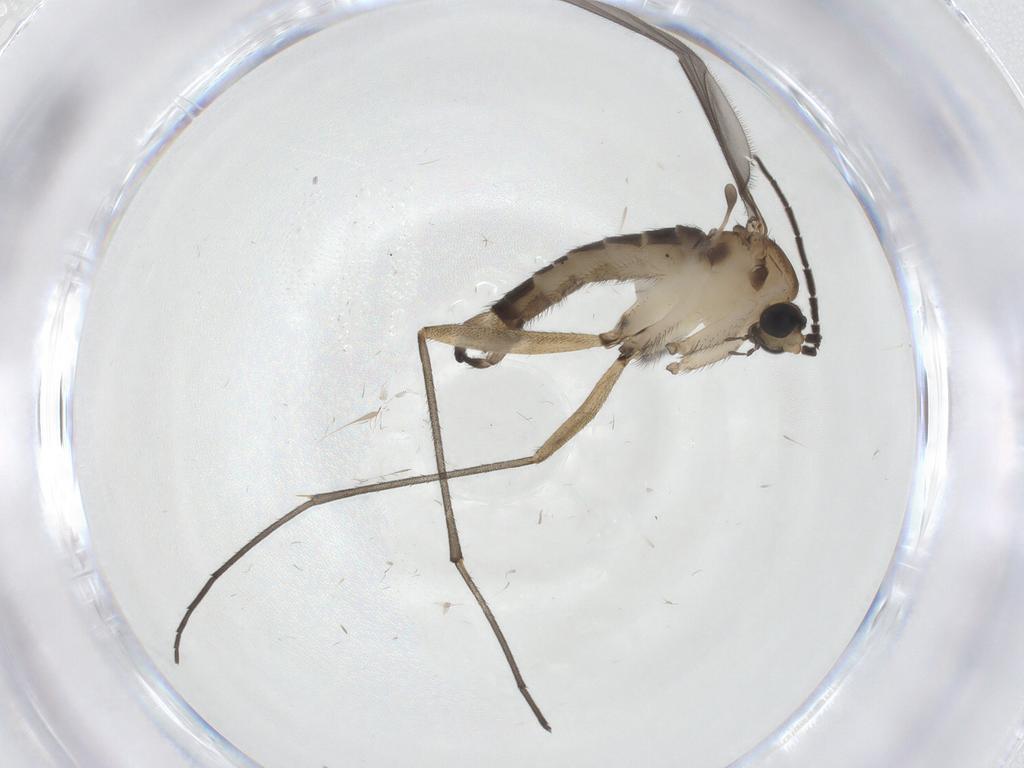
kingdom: Animalia
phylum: Arthropoda
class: Insecta
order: Diptera
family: Sciaridae
